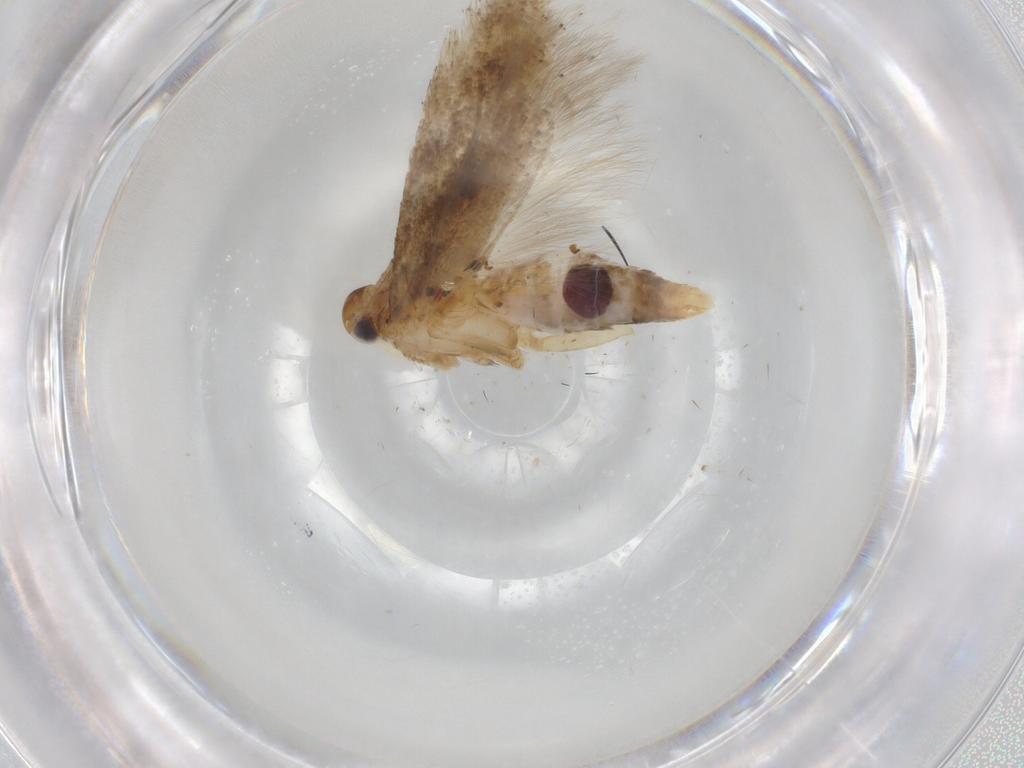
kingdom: Animalia
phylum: Arthropoda
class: Insecta
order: Lepidoptera
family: Gelechiidae
